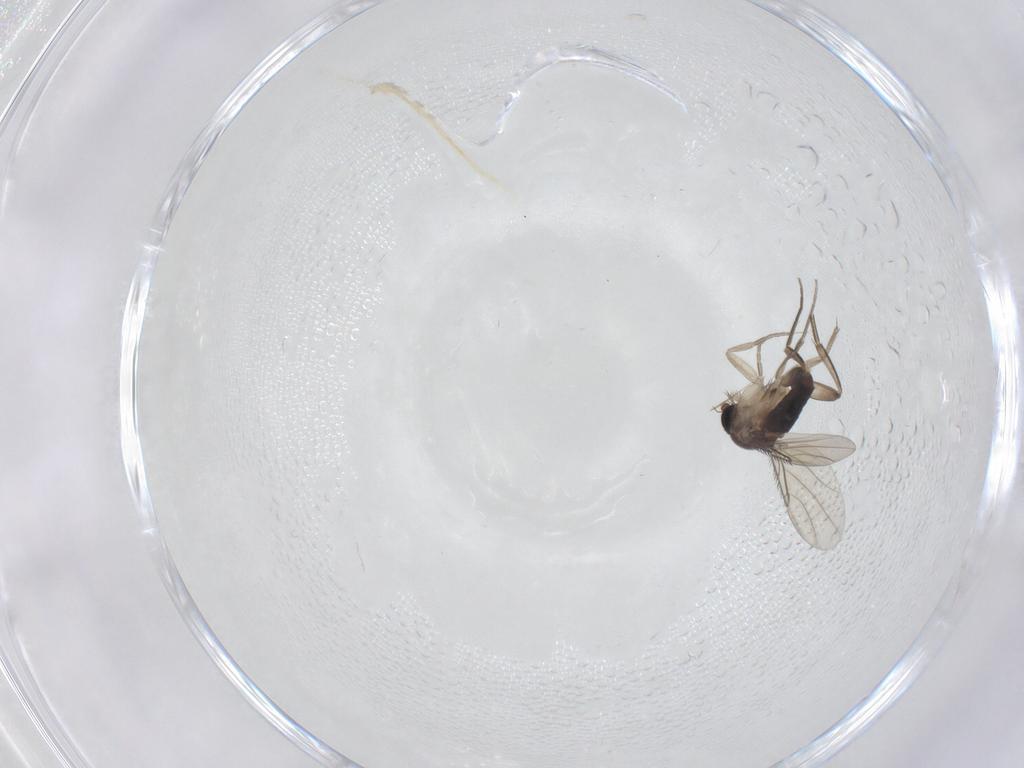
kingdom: Animalia
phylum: Arthropoda
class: Insecta
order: Diptera
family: Phoridae
